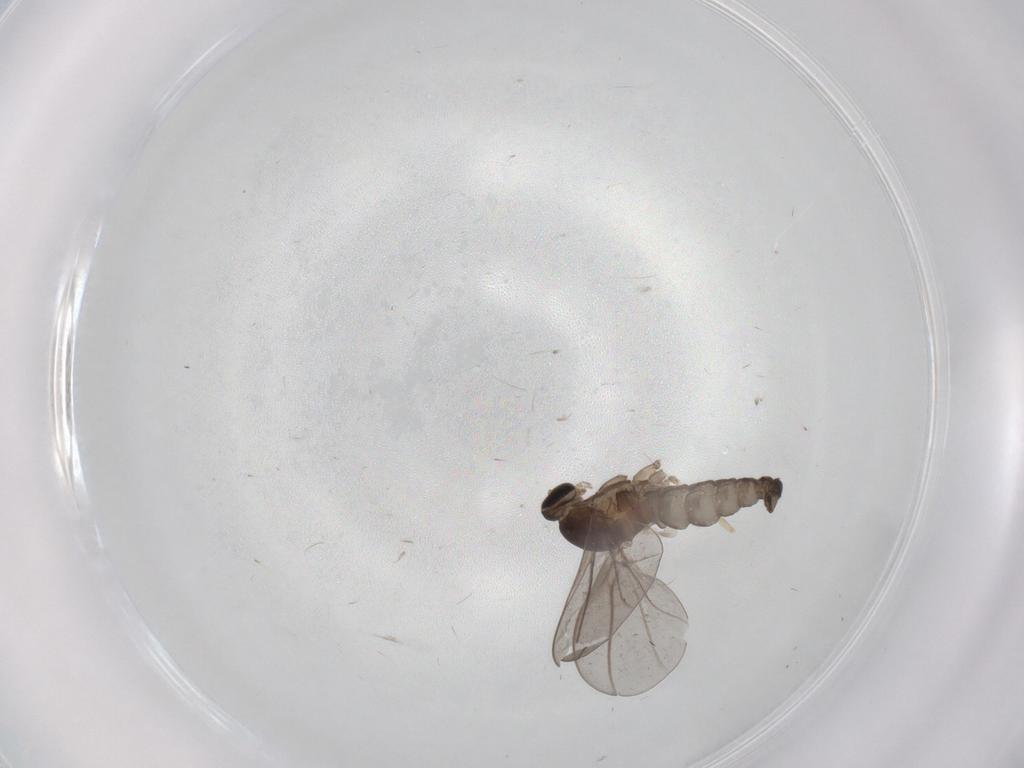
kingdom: Animalia
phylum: Arthropoda
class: Insecta
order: Diptera
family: Cecidomyiidae
